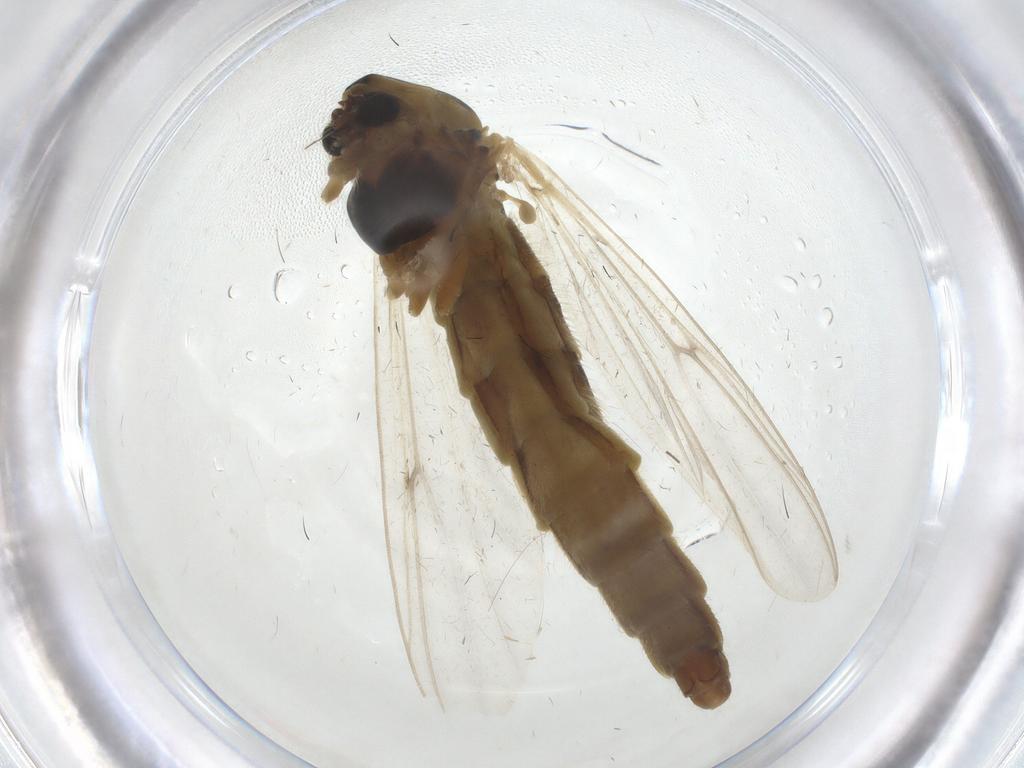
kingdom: Animalia
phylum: Arthropoda
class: Insecta
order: Diptera
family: Chironomidae
